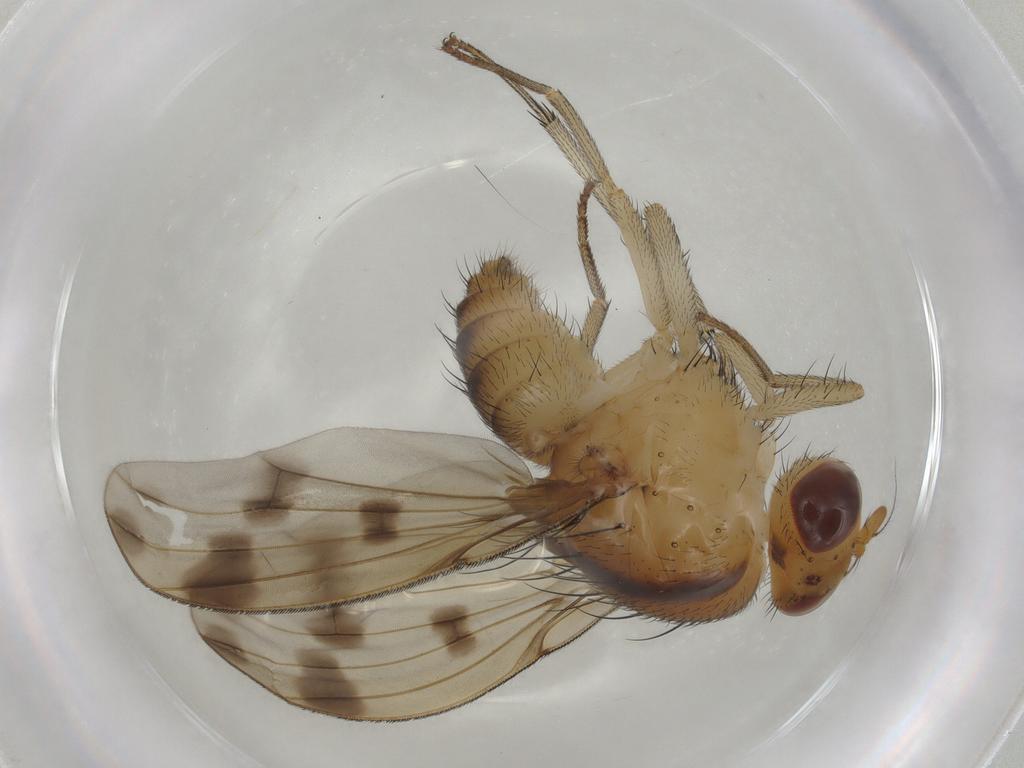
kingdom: Animalia
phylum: Arthropoda
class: Insecta
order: Diptera
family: Lauxaniidae
